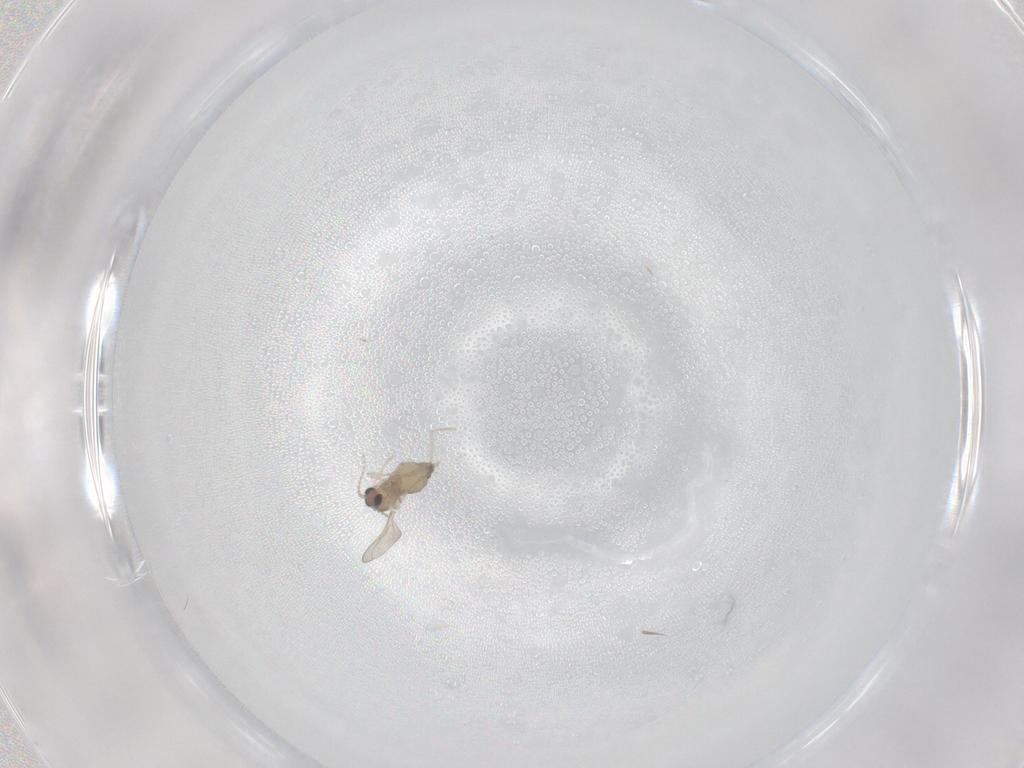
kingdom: Animalia
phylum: Arthropoda
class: Insecta
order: Diptera
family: Cecidomyiidae
